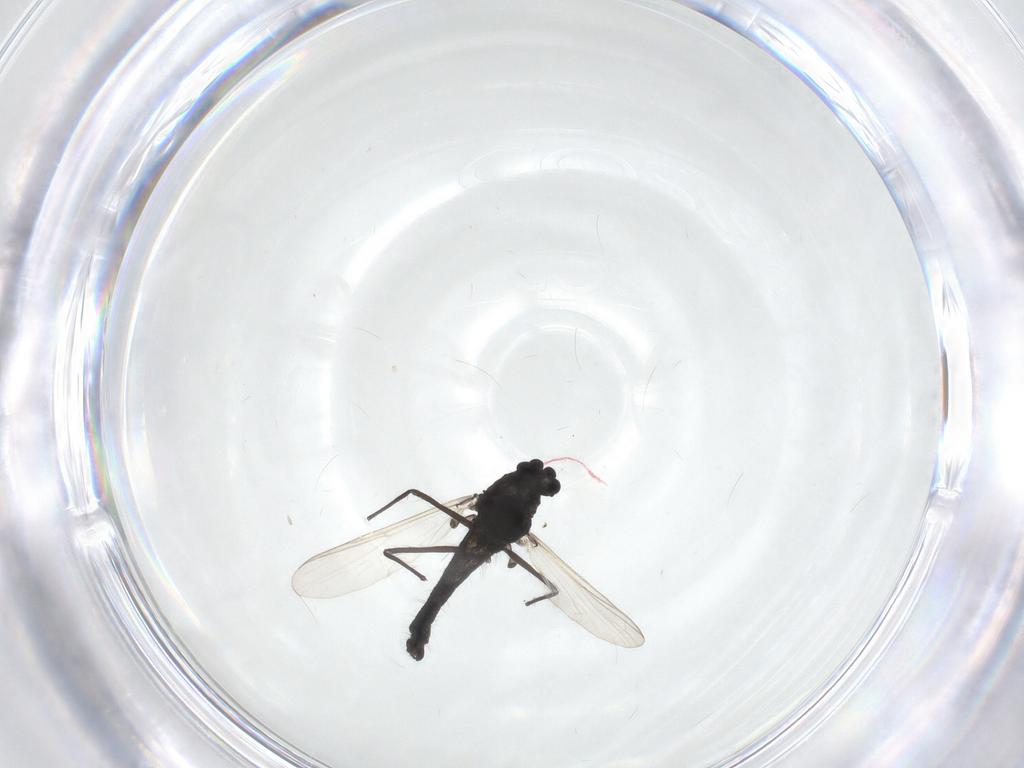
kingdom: Animalia
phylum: Arthropoda
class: Insecta
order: Diptera
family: Chironomidae
